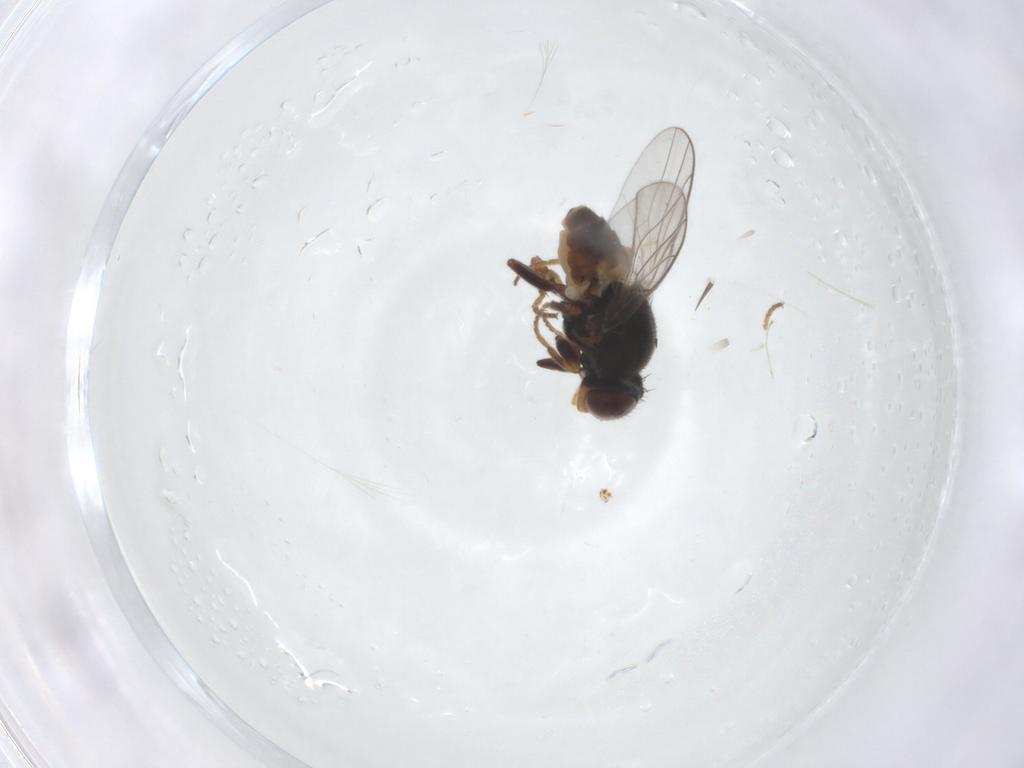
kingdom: Animalia
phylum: Arthropoda
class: Insecta
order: Diptera
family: Chloropidae
